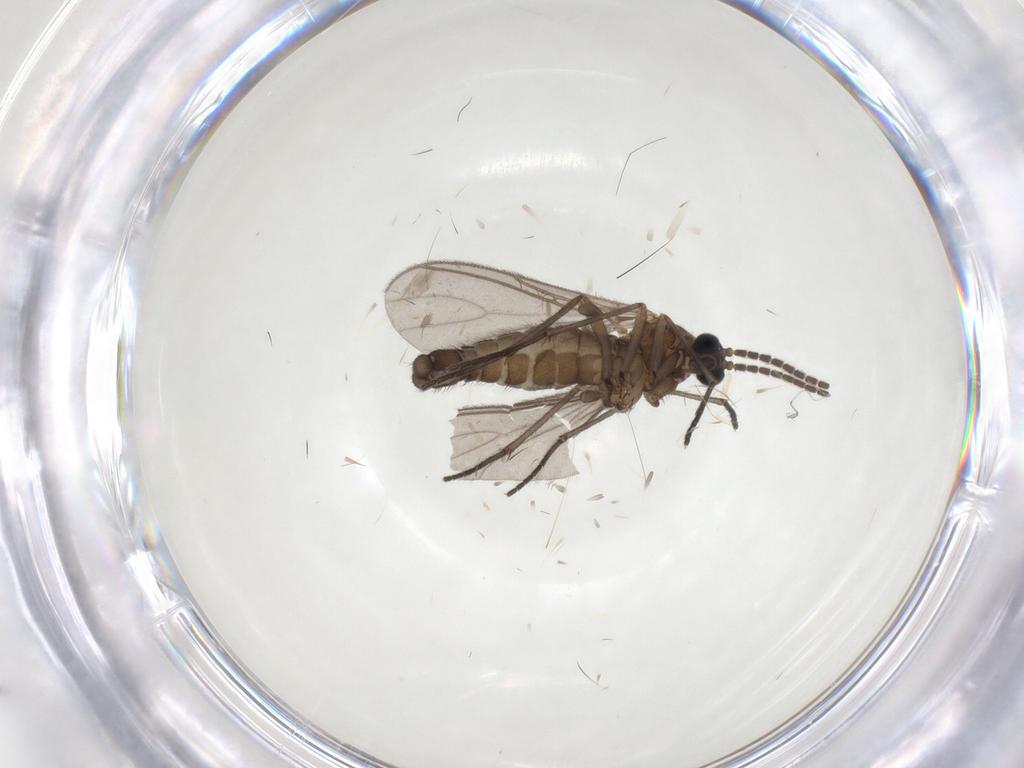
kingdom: Animalia
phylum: Arthropoda
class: Insecta
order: Diptera
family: Sciaridae
